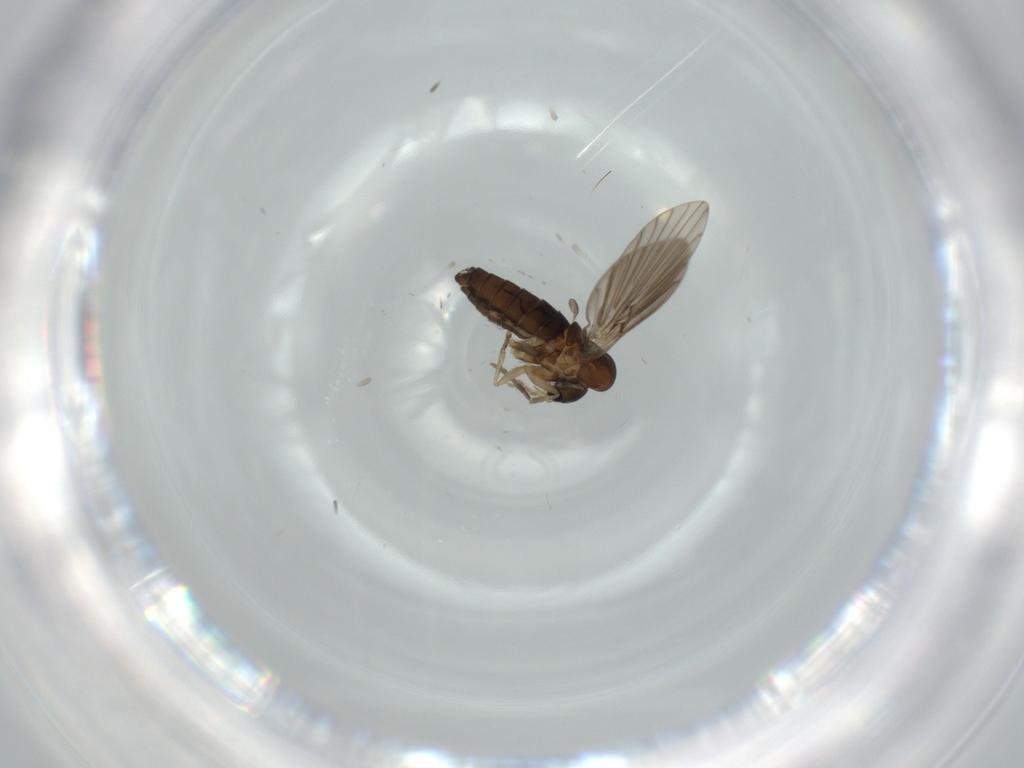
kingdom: Animalia
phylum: Arthropoda
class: Insecta
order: Diptera
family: Psychodidae
